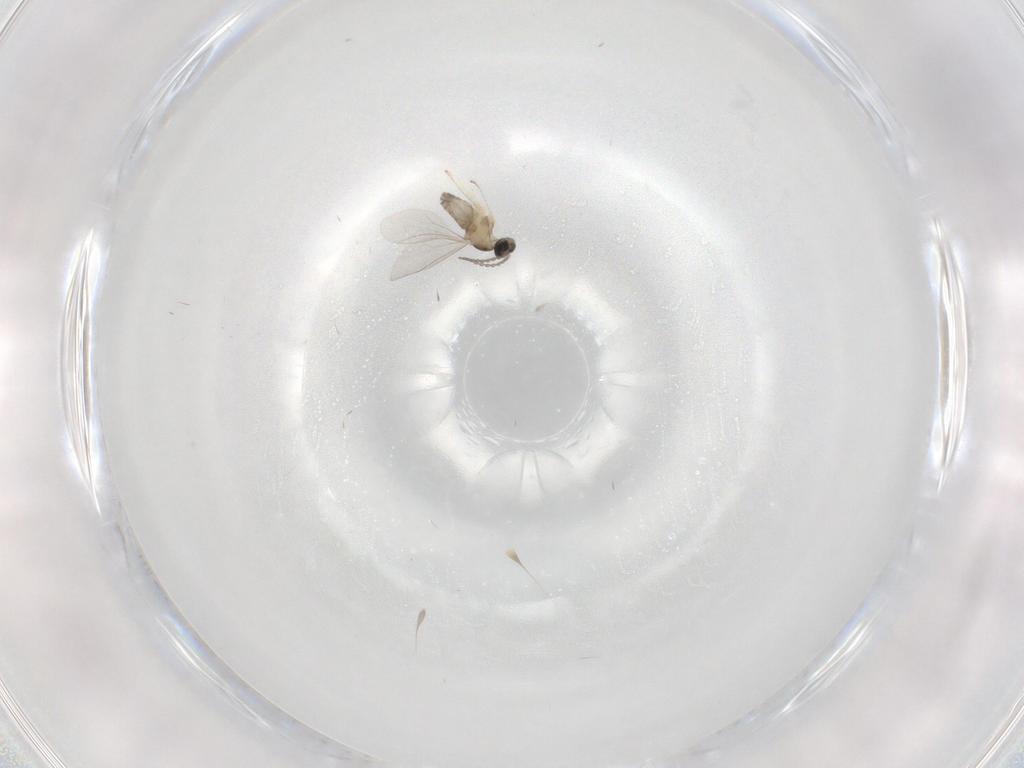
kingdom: Animalia
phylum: Arthropoda
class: Insecta
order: Diptera
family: Cecidomyiidae
